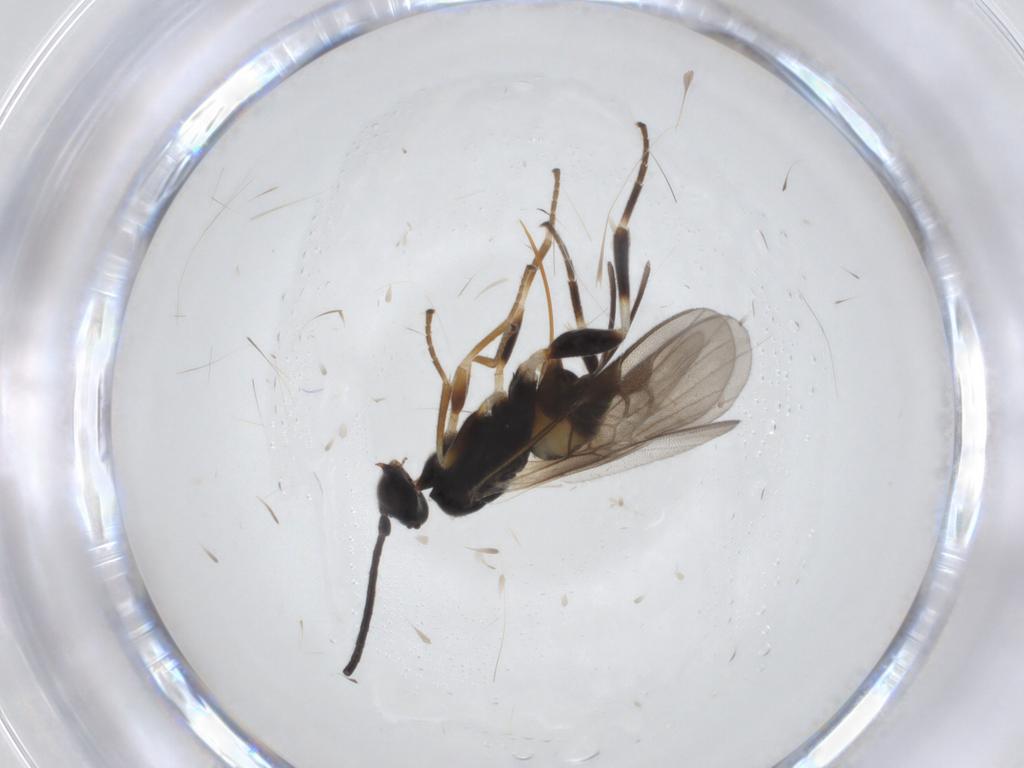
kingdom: Animalia
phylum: Arthropoda
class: Insecta
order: Hymenoptera
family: Braconidae
